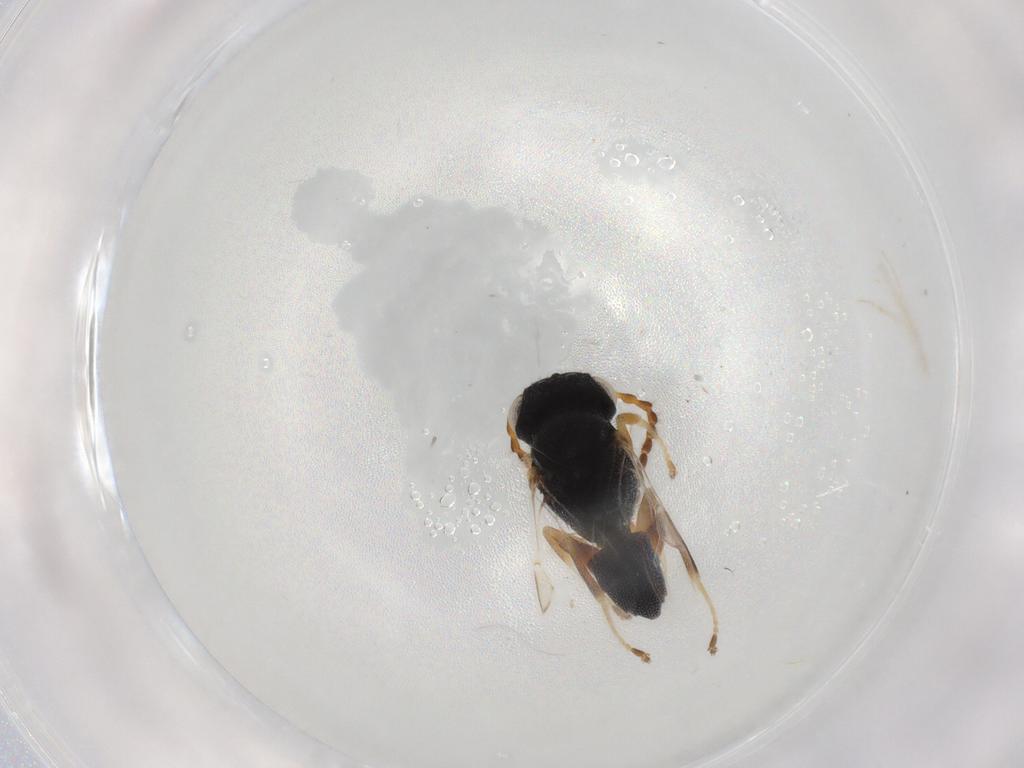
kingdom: Animalia
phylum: Arthropoda
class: Insecta
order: Hymenoptera
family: Dryinidae
